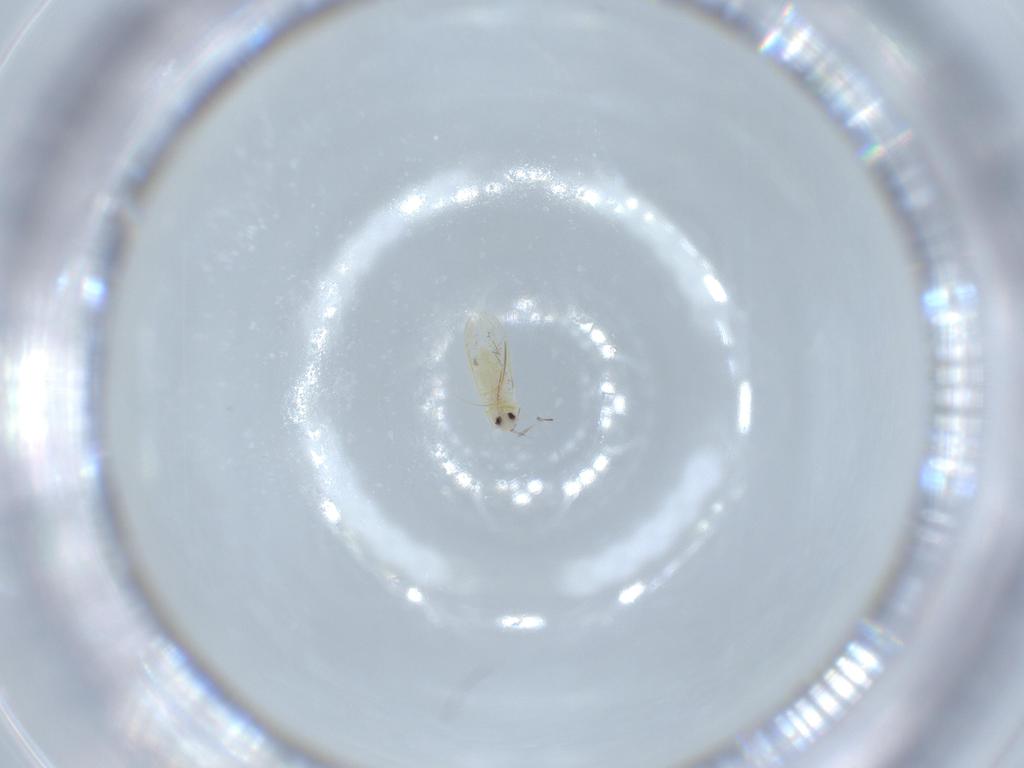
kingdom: Animalia
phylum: Arthropoda
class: Insecta
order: Hemiptera
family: Aleyrodidae
